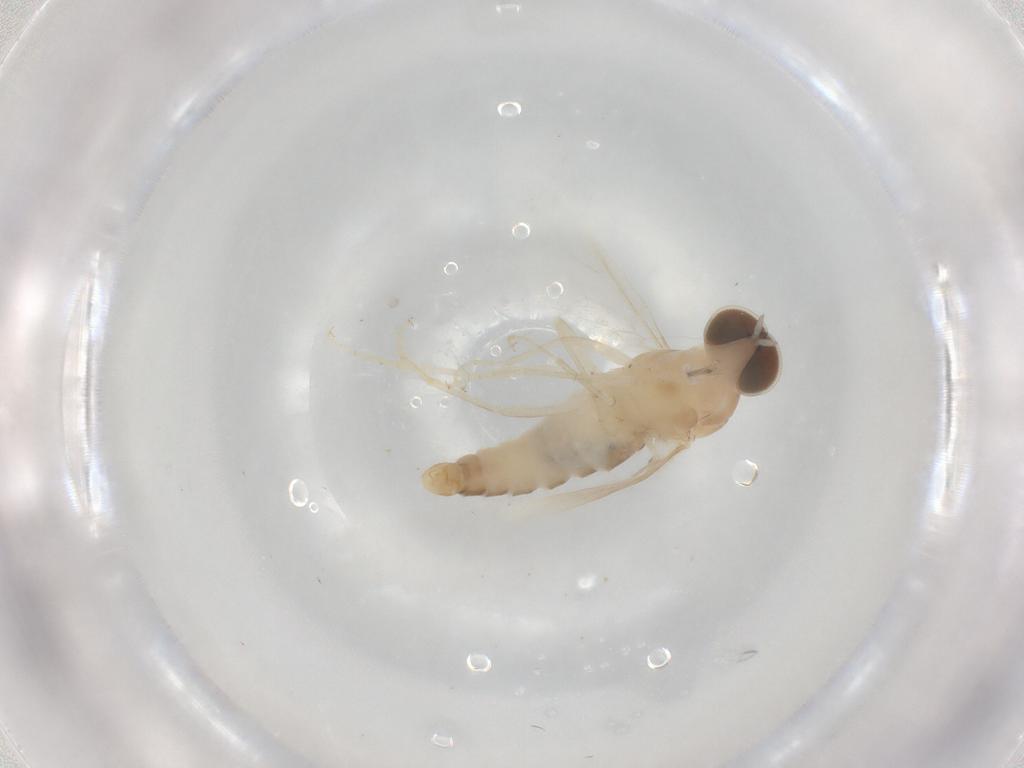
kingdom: Animalia
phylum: Arthropoda
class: Insecta
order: Diptera
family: Scenopinidae
